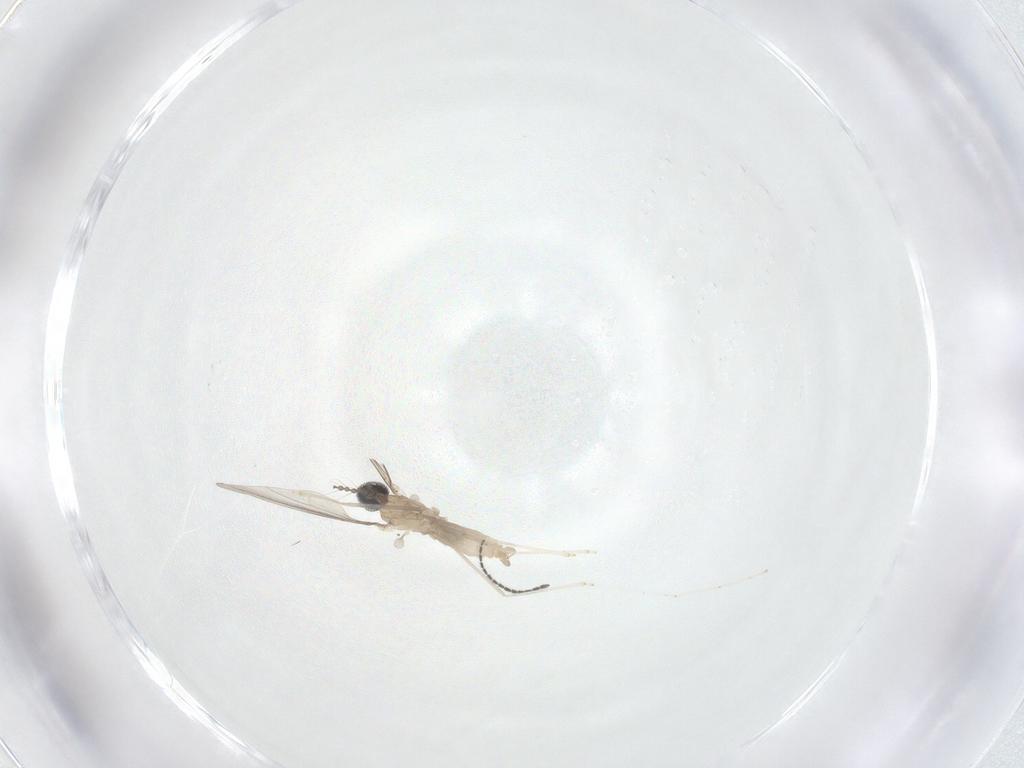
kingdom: Animalia
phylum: Arthropoda
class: Insecta
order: Diptera
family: Cecidomyiidae
